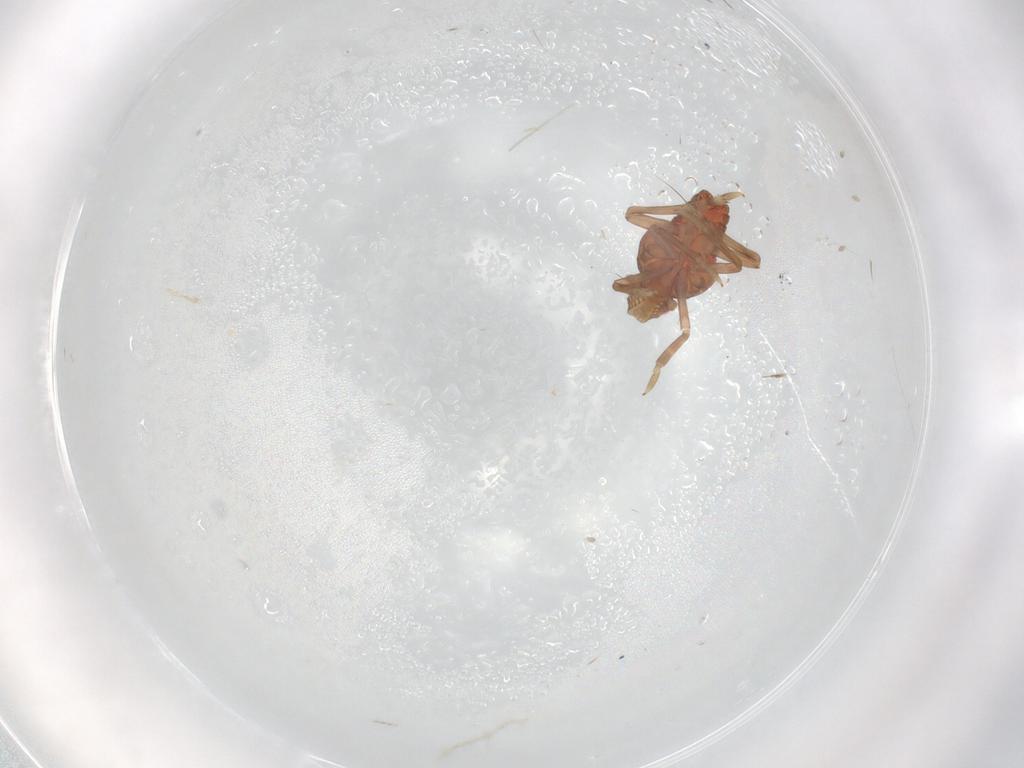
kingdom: Animalia
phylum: Arthropoda
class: Insecta
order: Hemiptera
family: Cicadellidae
